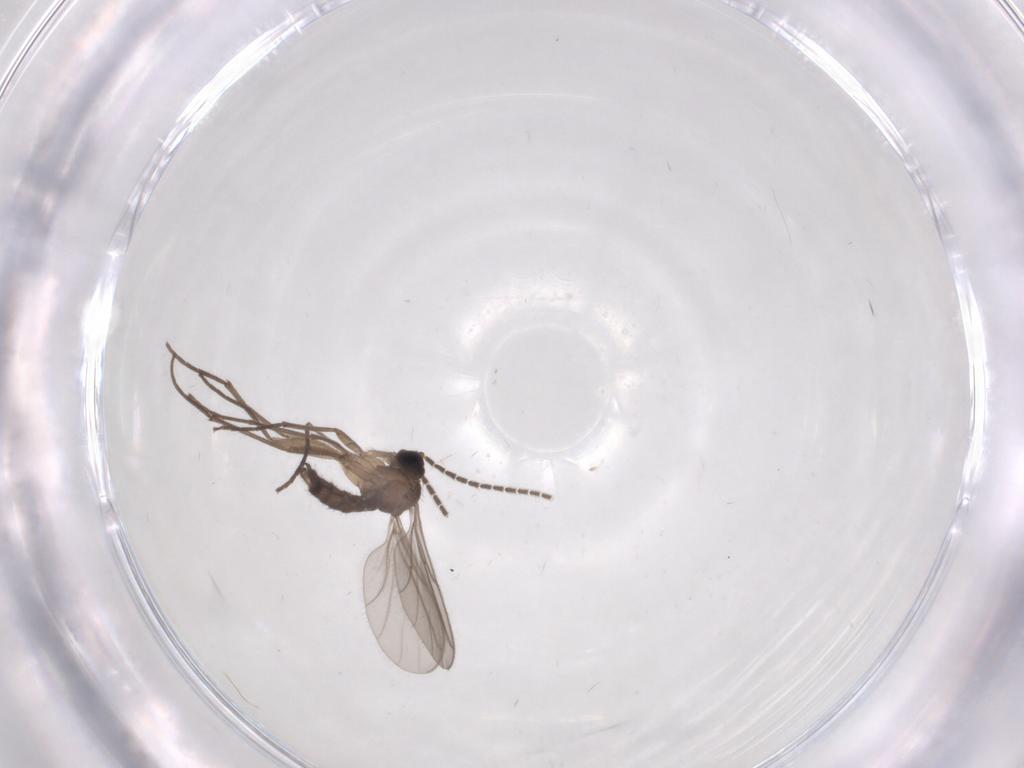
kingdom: Animalia
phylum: Arthropoda
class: Insecta
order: Diptera
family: Sciaridae
